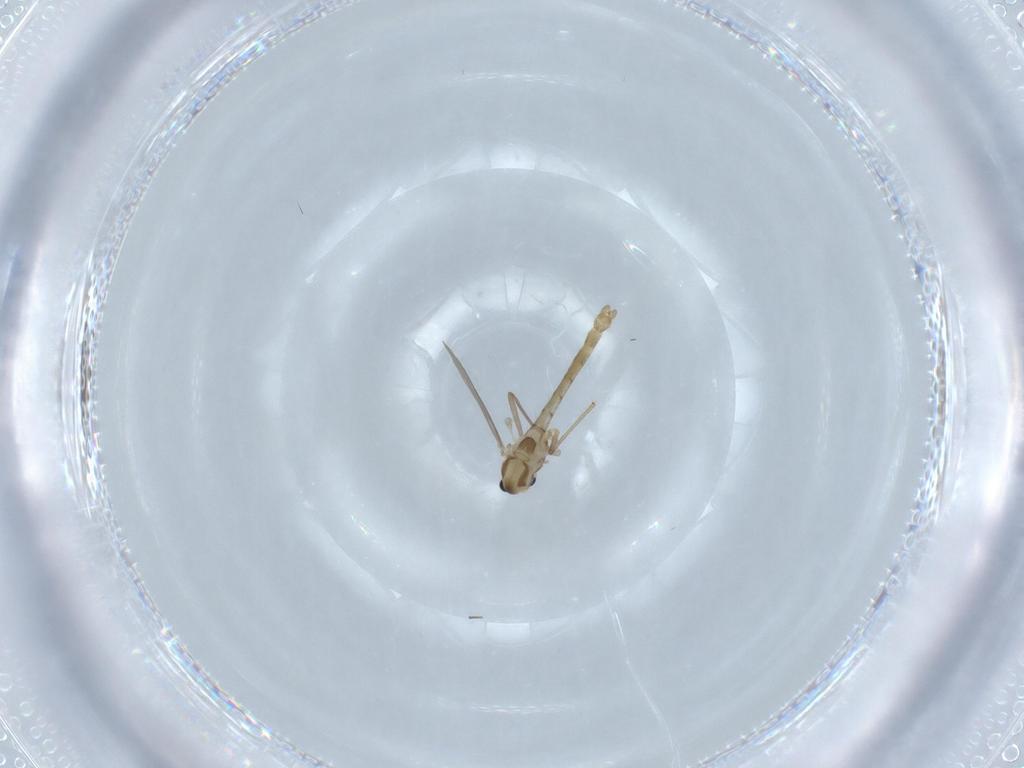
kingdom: Animalia
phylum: Arthropoda
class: Insecta
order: Diptera
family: Chironomidae
